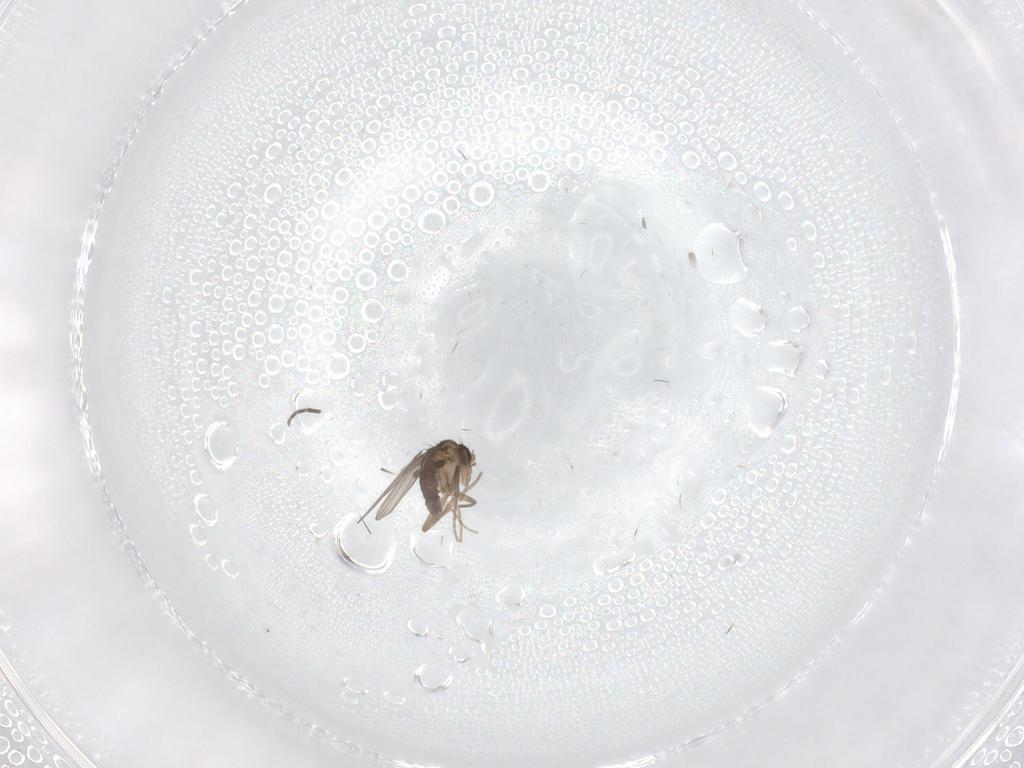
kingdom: Animalia
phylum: Arthropoda
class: Insecta
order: Diptera
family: Phoridae
